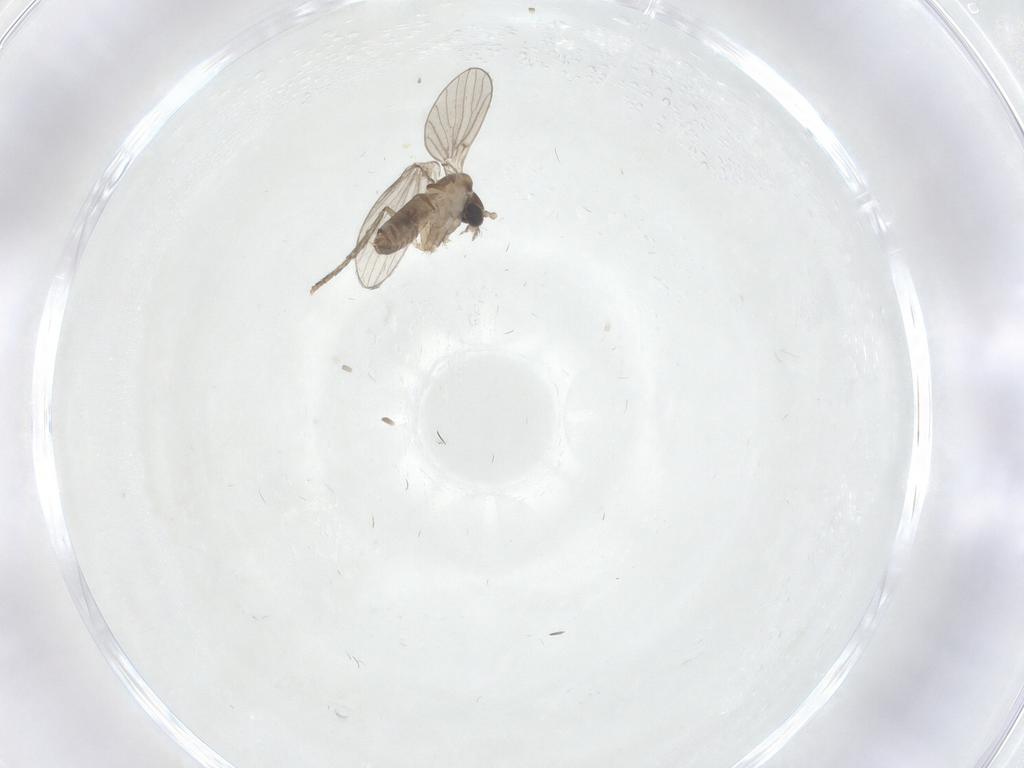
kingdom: Animalia
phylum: Arthropoda
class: Insecta
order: Diptera
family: Psychodidae
